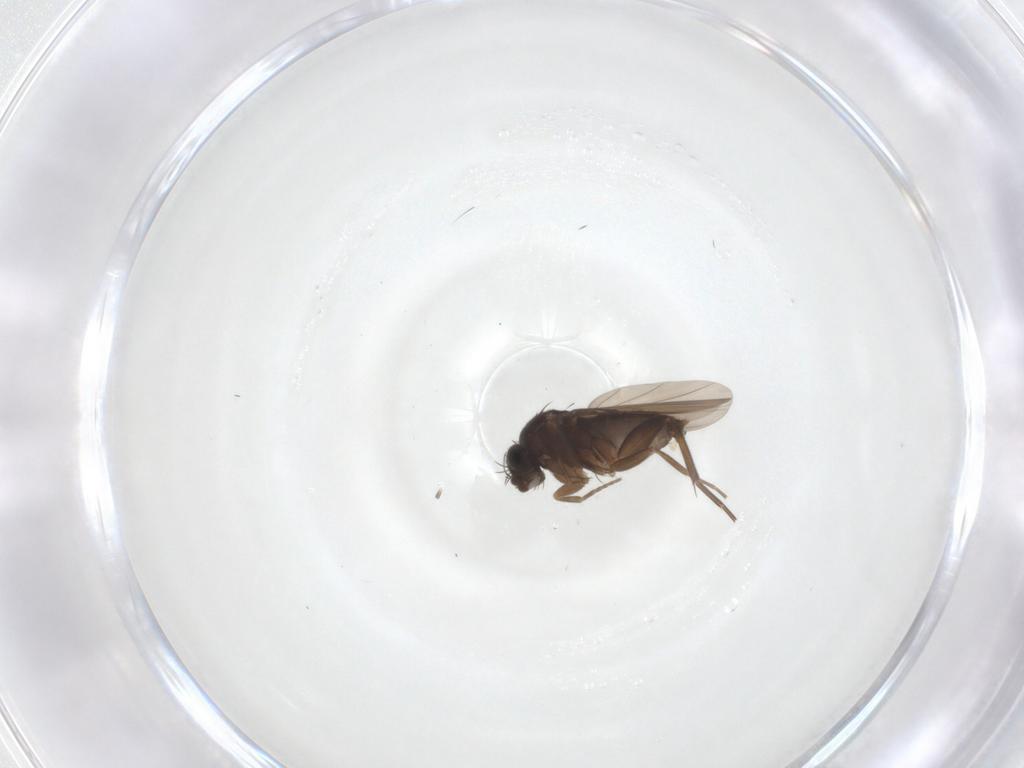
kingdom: Animalia
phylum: Arthropoda
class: Insecta
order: Diptera
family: Phoridae
